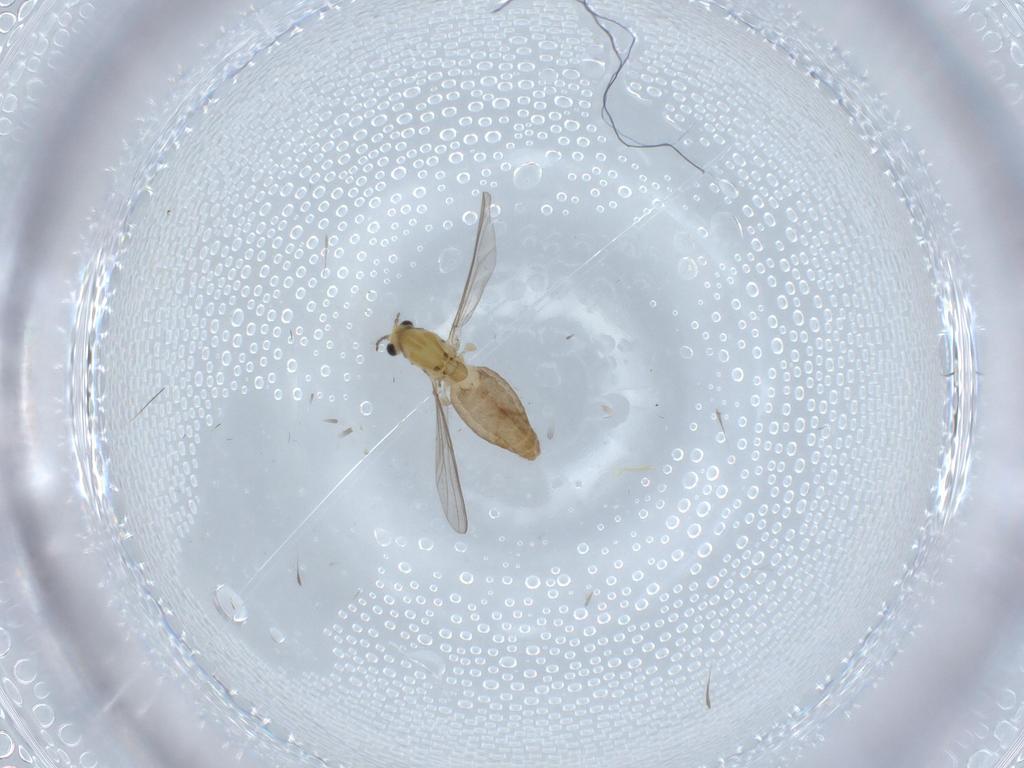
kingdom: Animalia
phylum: Arthropoda
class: Insecta
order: Diptera
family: Chironomidae
